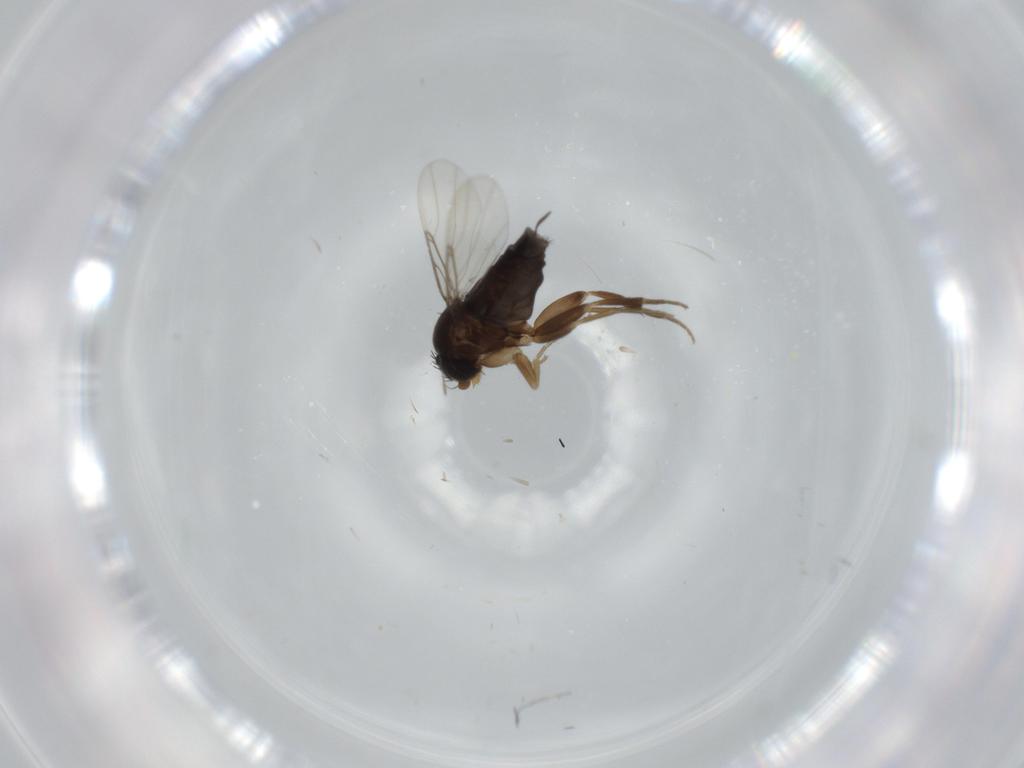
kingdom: Animalia
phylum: Arthropoda
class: Insecta
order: Diptera
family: Phoridae
